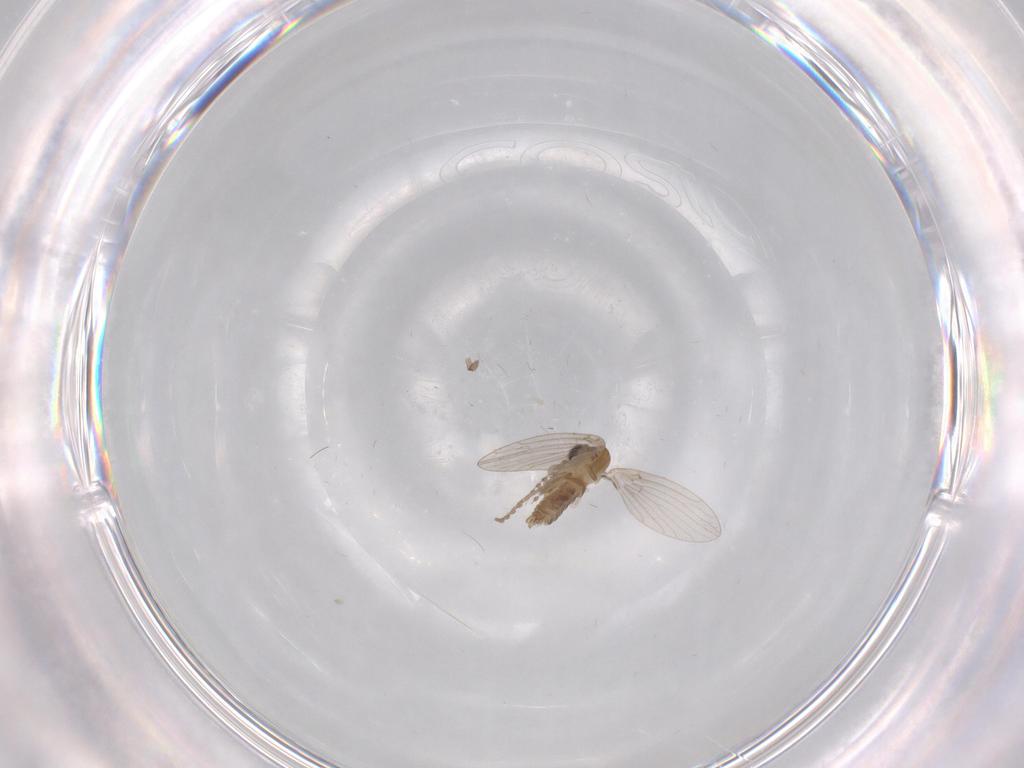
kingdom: Animalia
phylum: Arthropoda
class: Insecta
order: Diptera
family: Psychodidae
